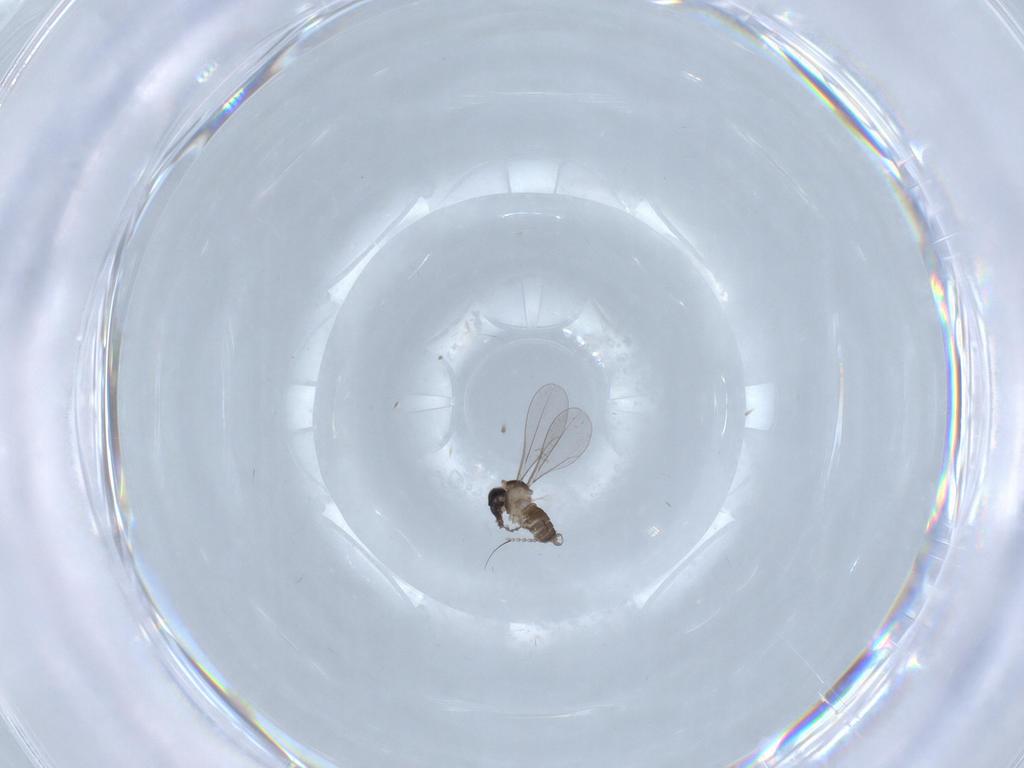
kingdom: Animalia
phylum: Arthropoda
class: Insecta
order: Diptera
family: Cecidomyiidae
